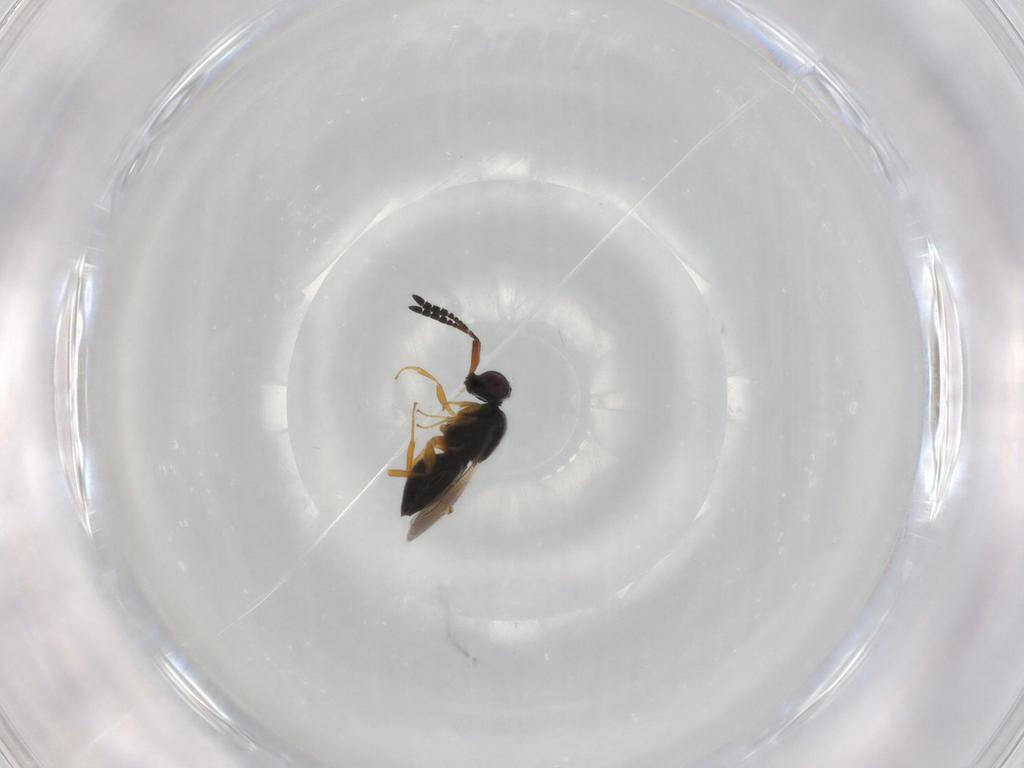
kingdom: Animalia
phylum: Arthropoda
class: Insecta
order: Hymenoptera
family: Ceraphronidae
